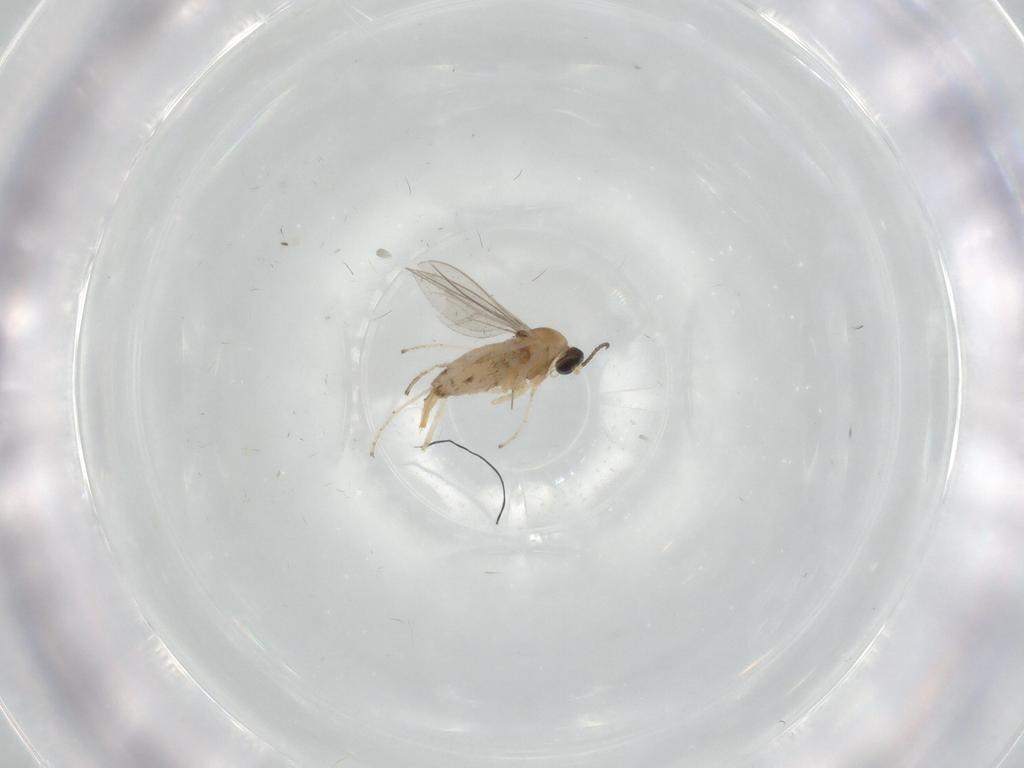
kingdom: Animalia
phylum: Arthropoda
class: Insecta
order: Diptera
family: Cecidomyiidae
